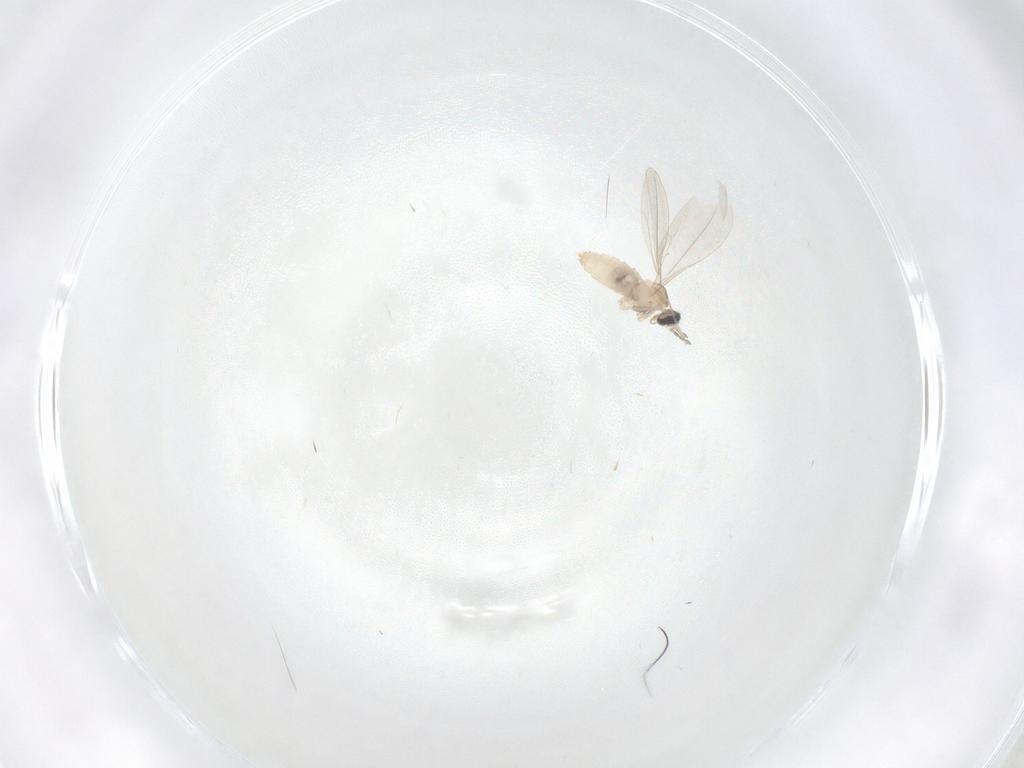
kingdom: Animalia
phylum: Arthropoda
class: Insecta
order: Diptera
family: Cecidomyiidae
